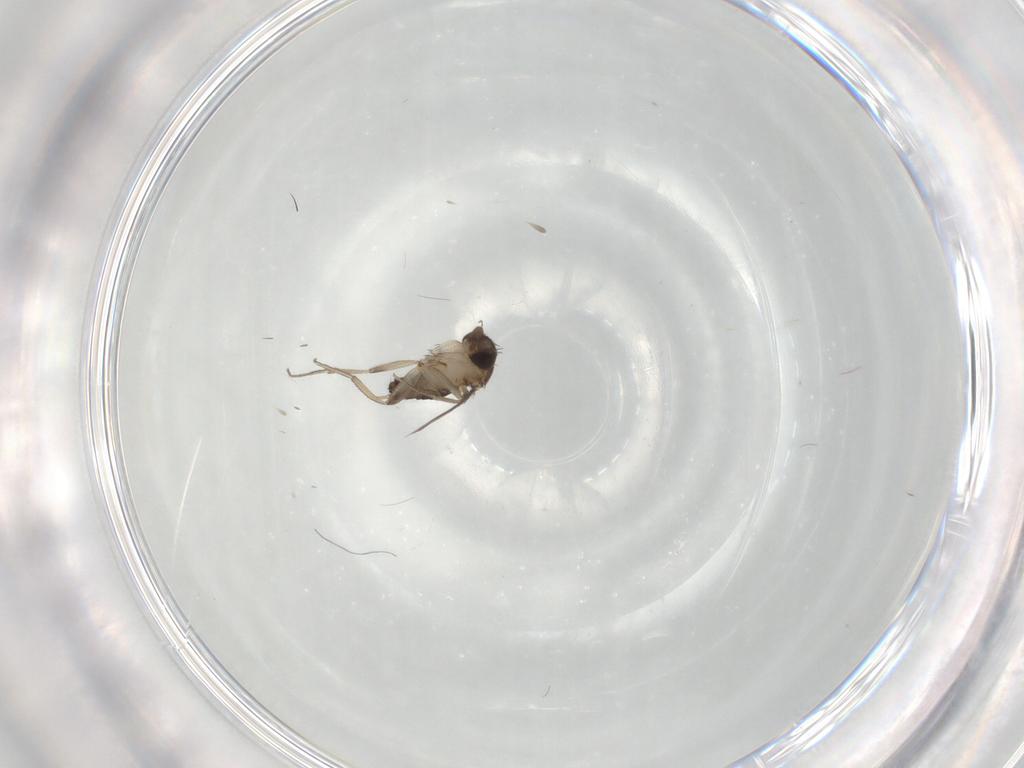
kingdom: Animalia
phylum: Arthropoda
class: Insecta
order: Diptera
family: Phoridae
